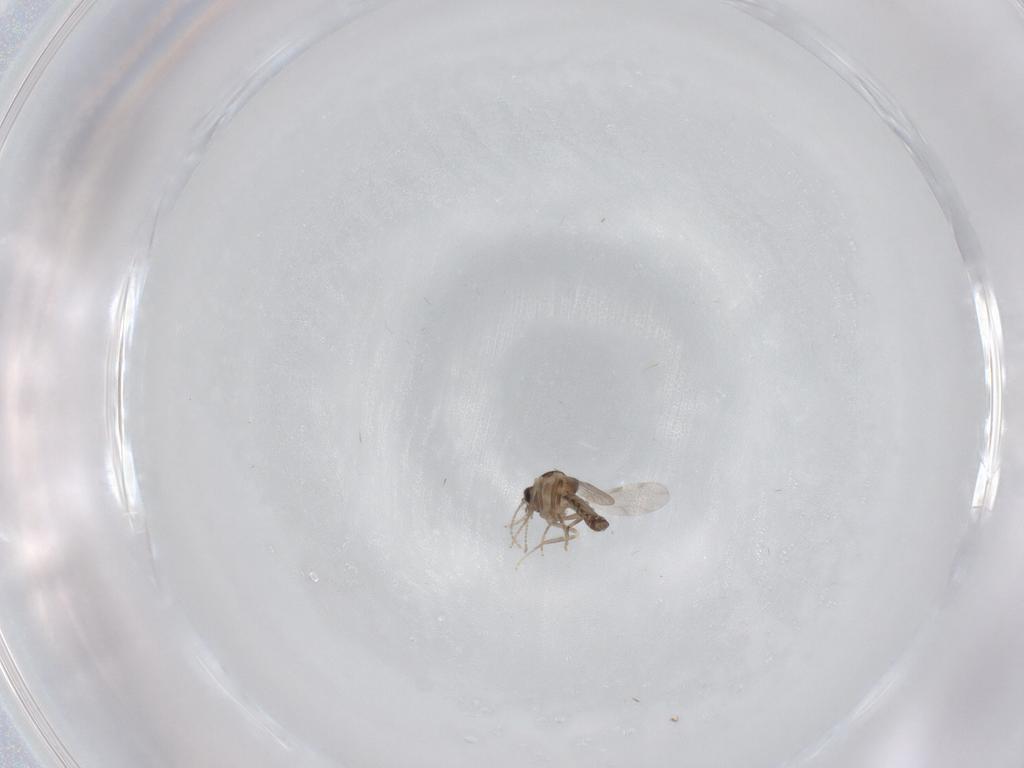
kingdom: Animalia
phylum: Arthropoda
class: Insecta
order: Diptera
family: Ceratopogonidae
